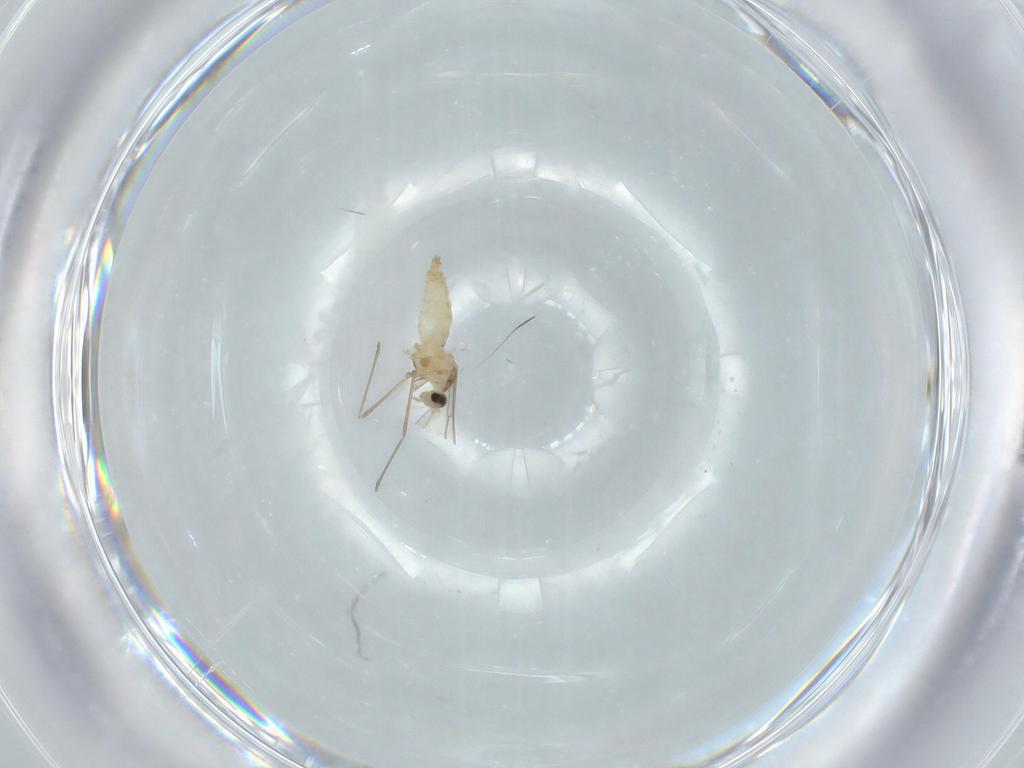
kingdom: Animalia
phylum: Arthropoda
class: Insecta
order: Diptera
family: Cecidomyiidae
